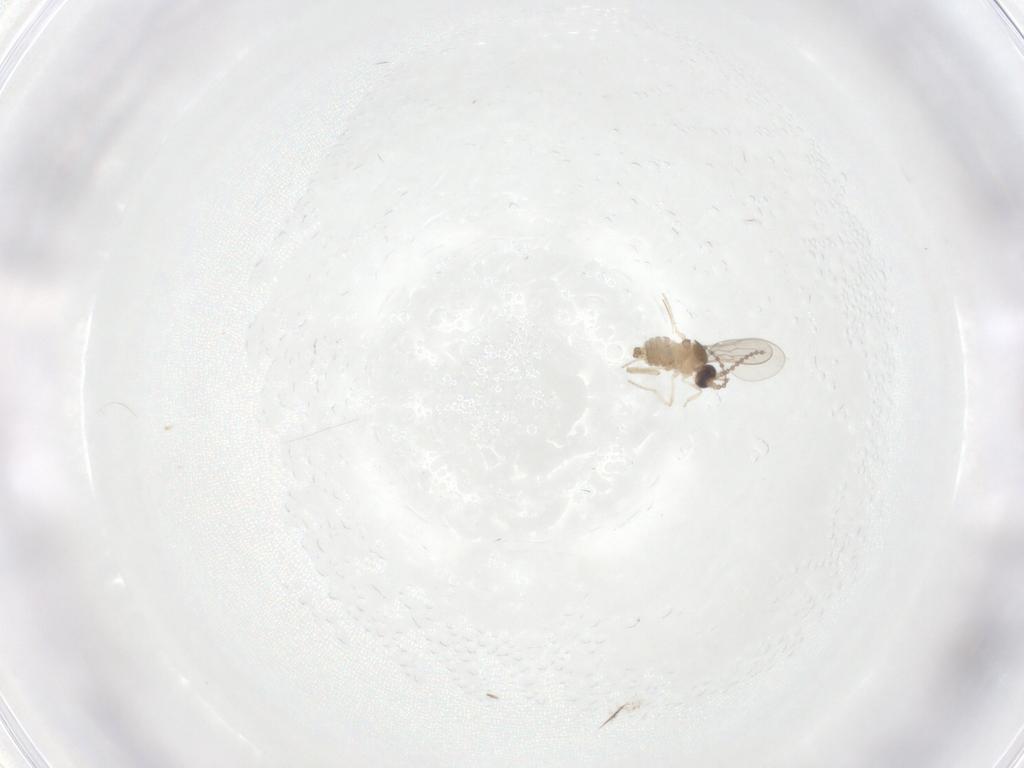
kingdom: Animalia
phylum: Arthropoda
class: Insecta
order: Diptera
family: Cecidomyiidae
